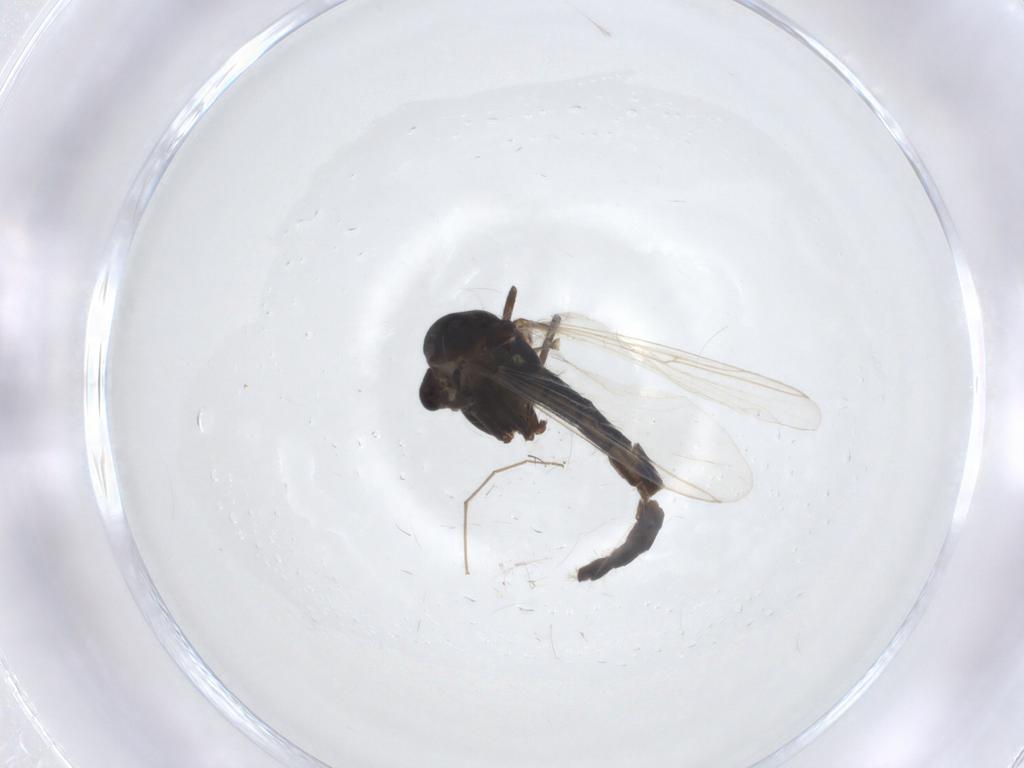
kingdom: Animalia
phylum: Arthropoda
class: Insecta
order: Diptera
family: Chironomidae
